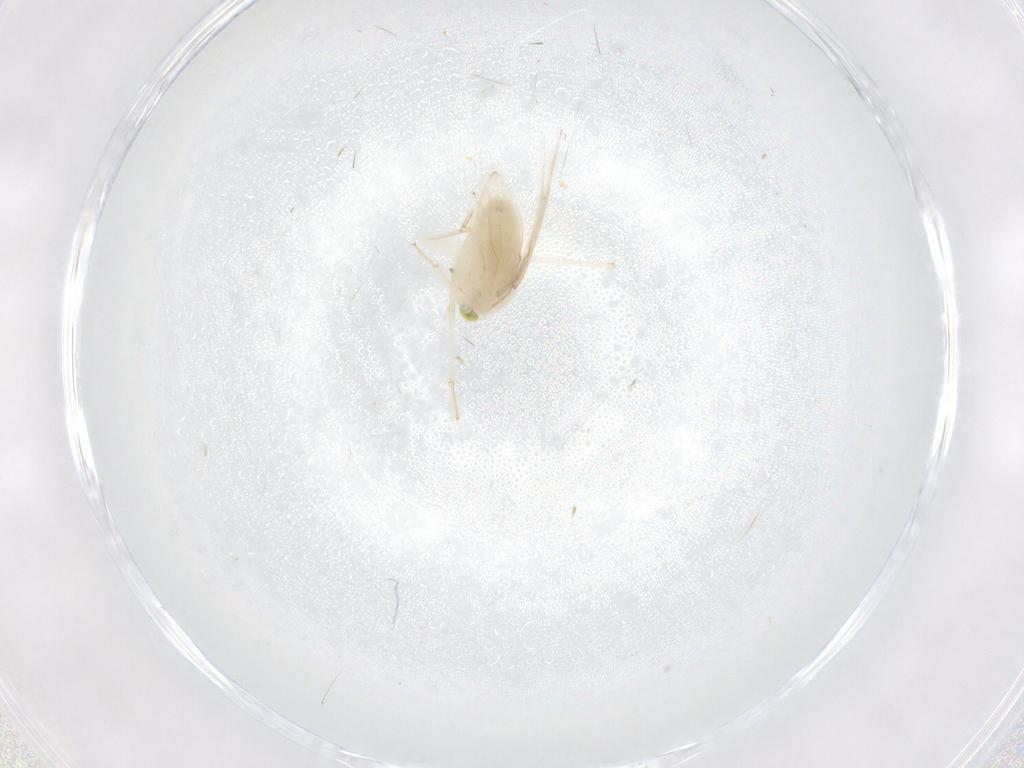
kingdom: Animalia
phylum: Arthropoda
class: Insecta
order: Psocodea
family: Lepidopsocidae
